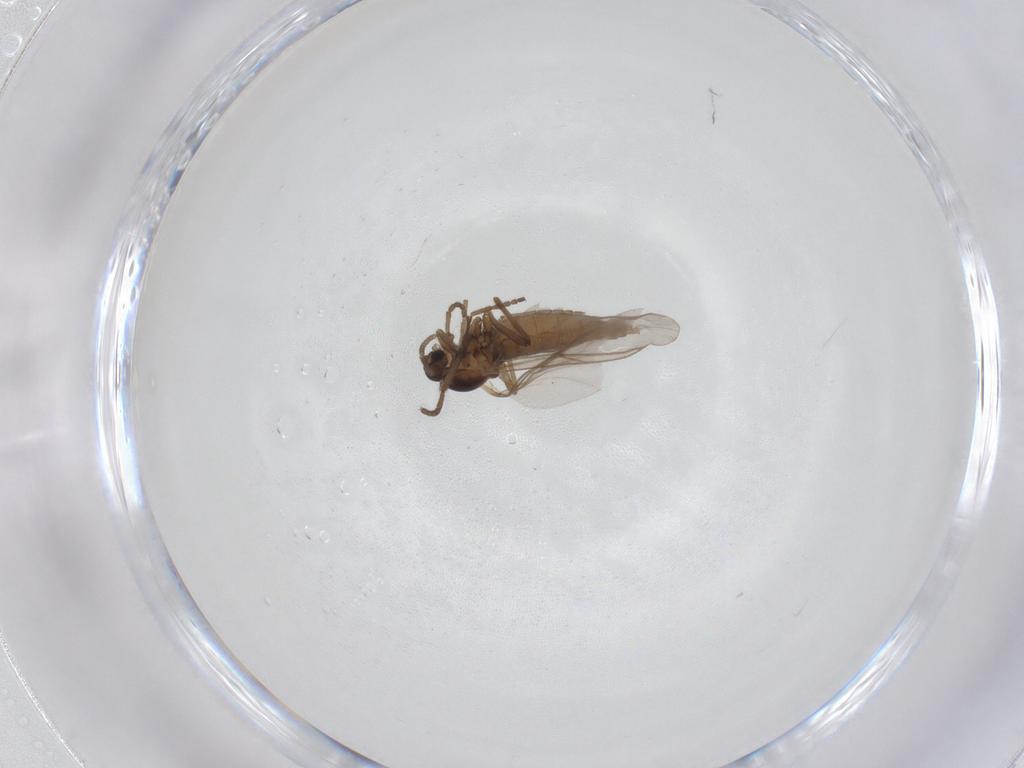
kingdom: Animalia
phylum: Arthropoda
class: Insecta
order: Diptera
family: Cecidomyiidae
